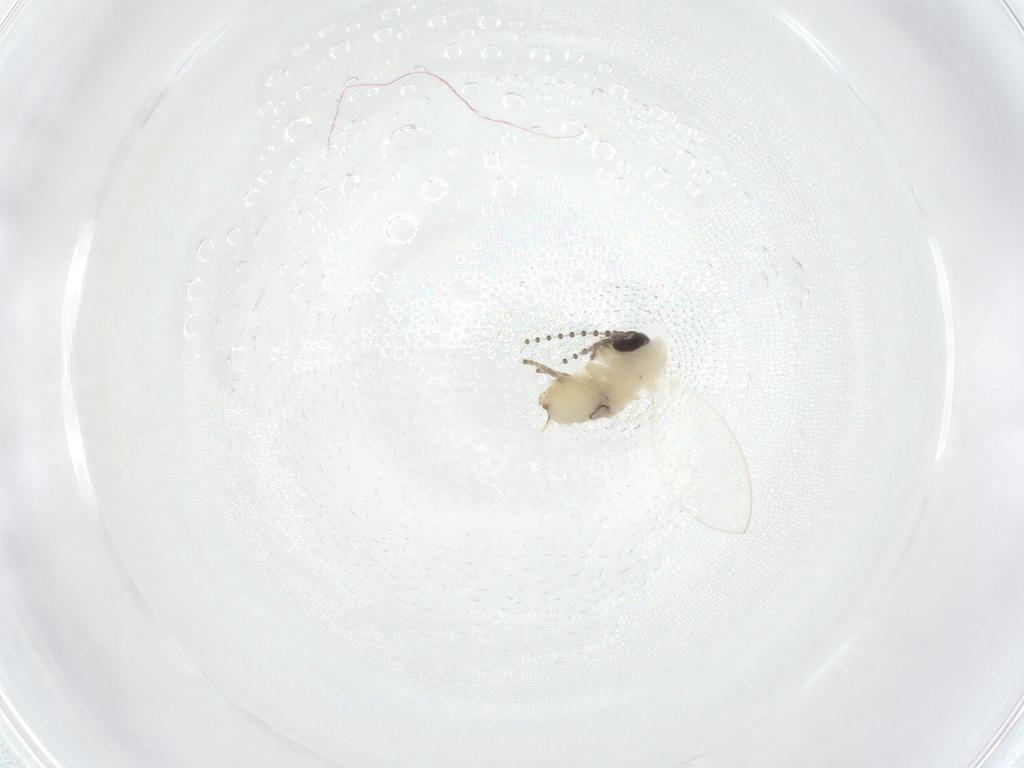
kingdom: Animalia
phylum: Arthropoda
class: Insecta
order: Diptera
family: Psychodidae
